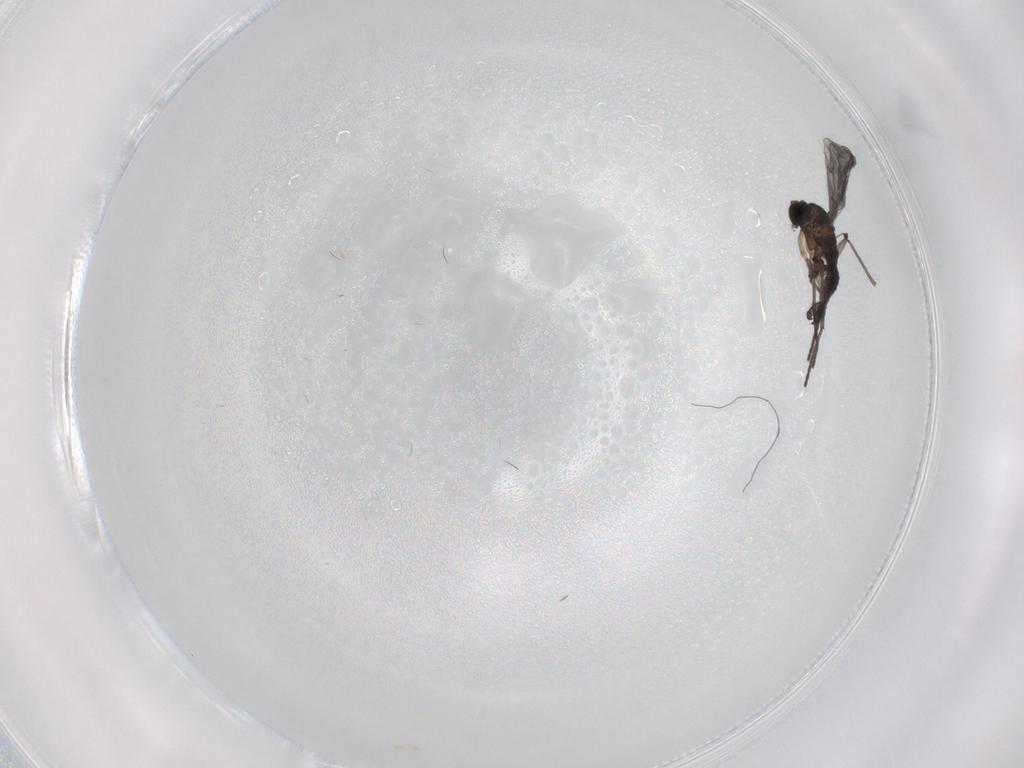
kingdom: Animalia
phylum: Arthropoda
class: Insecta
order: Diptera
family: Sciaridae
